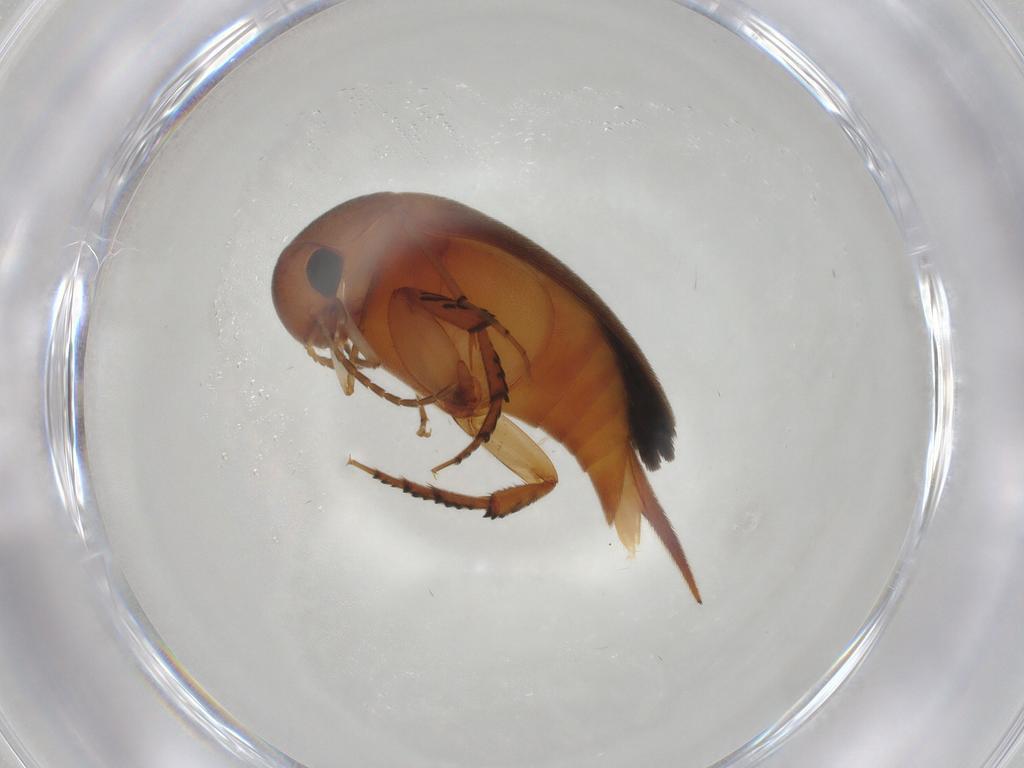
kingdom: Animalia
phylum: Arthropoda
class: Insecta
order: Coleoptera
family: Mordellidae
